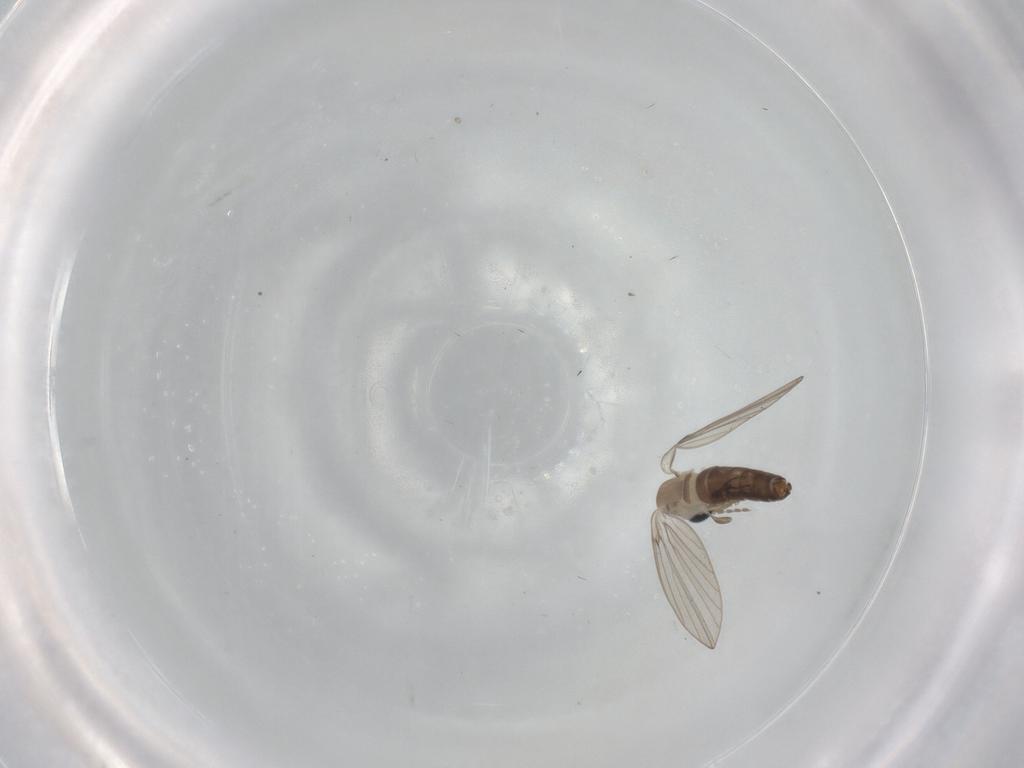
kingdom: Animalia
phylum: Arthropoda
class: Insecta
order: Diptera
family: Psychodidae
